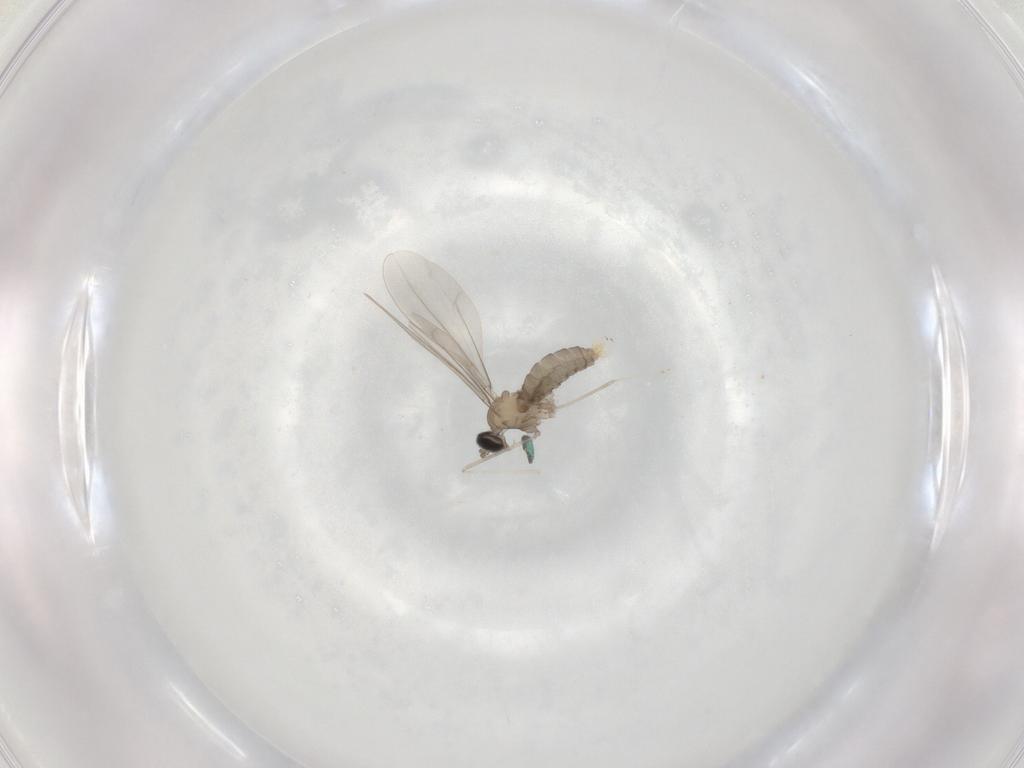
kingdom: Animalia
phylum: Arthropoda
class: Insecta
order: Diptera
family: Cecidomyiidae
